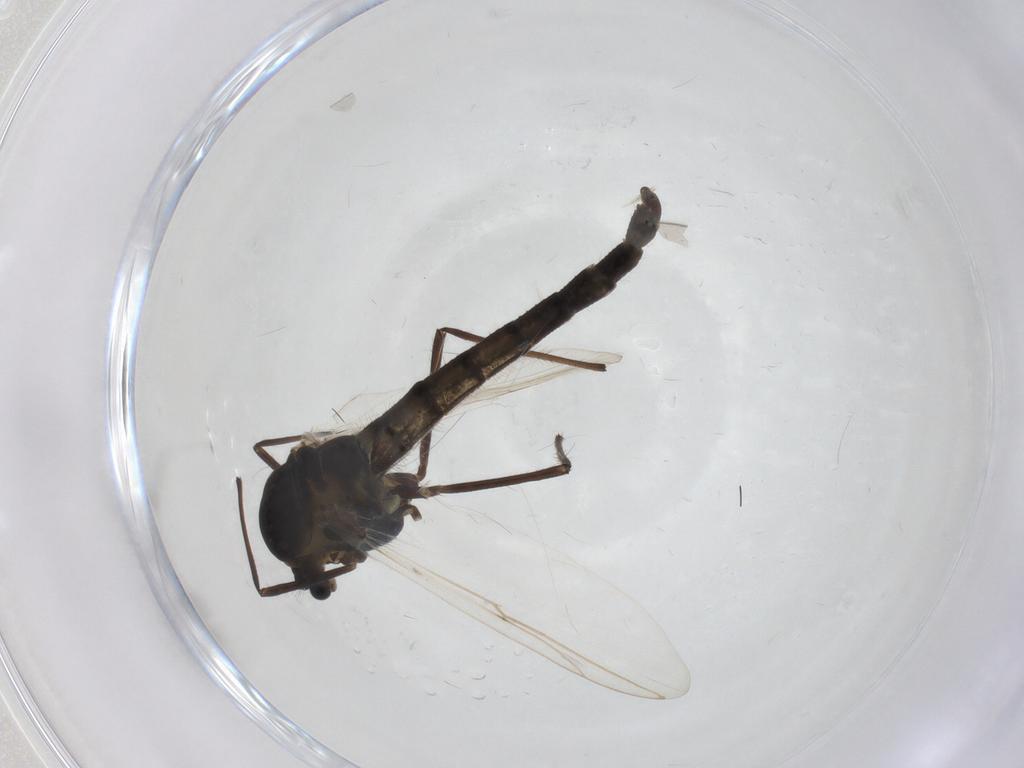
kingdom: Animalia
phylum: Arthropoda
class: Insecta
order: Diptera
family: Chironomidae
